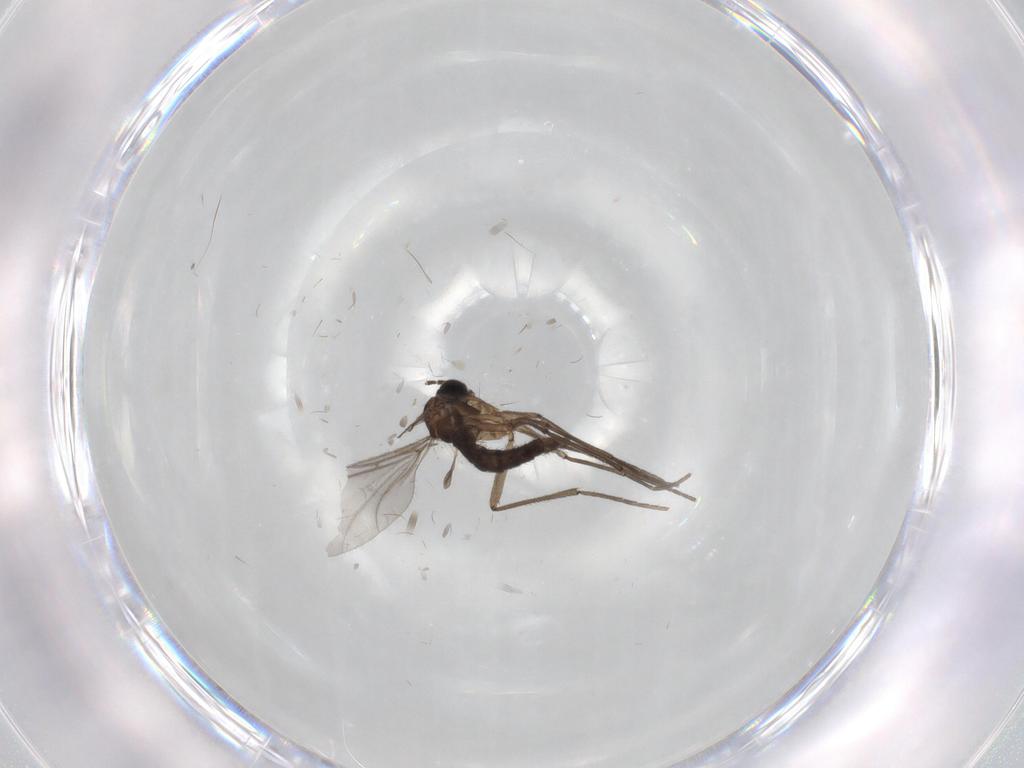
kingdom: Animalia
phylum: Arthropoda
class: Insecta
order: Diptera
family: Sciaridae
